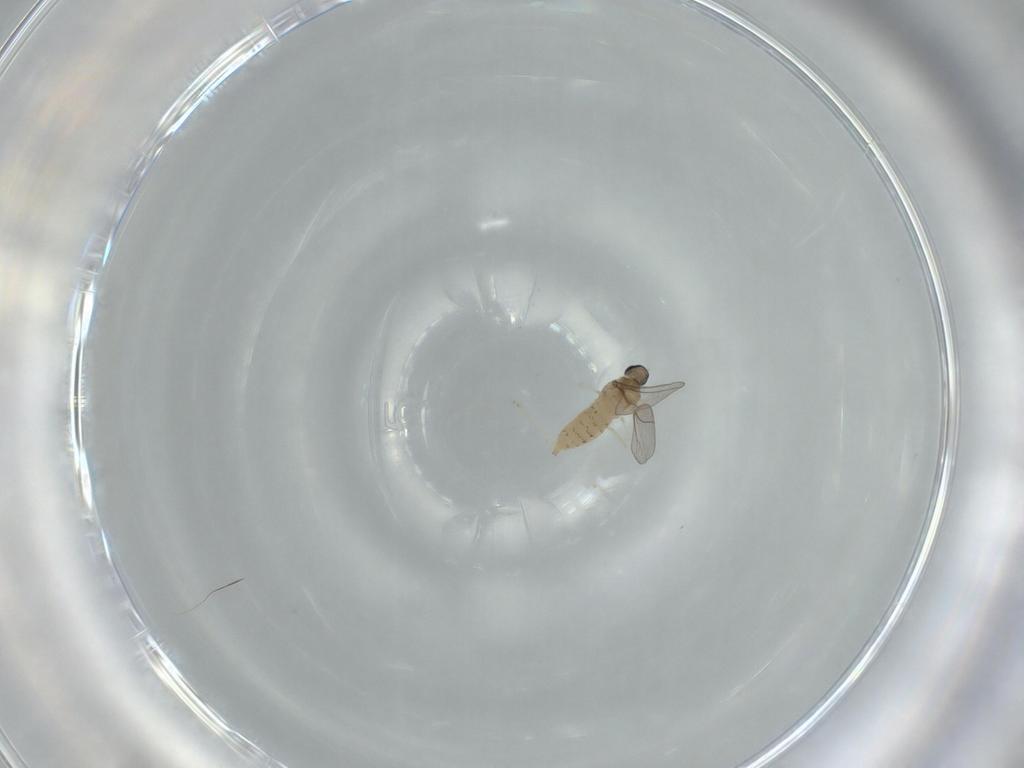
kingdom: Animalia
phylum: Arthropoda
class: Insecta
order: Diptera
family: Cecidomyiidae
